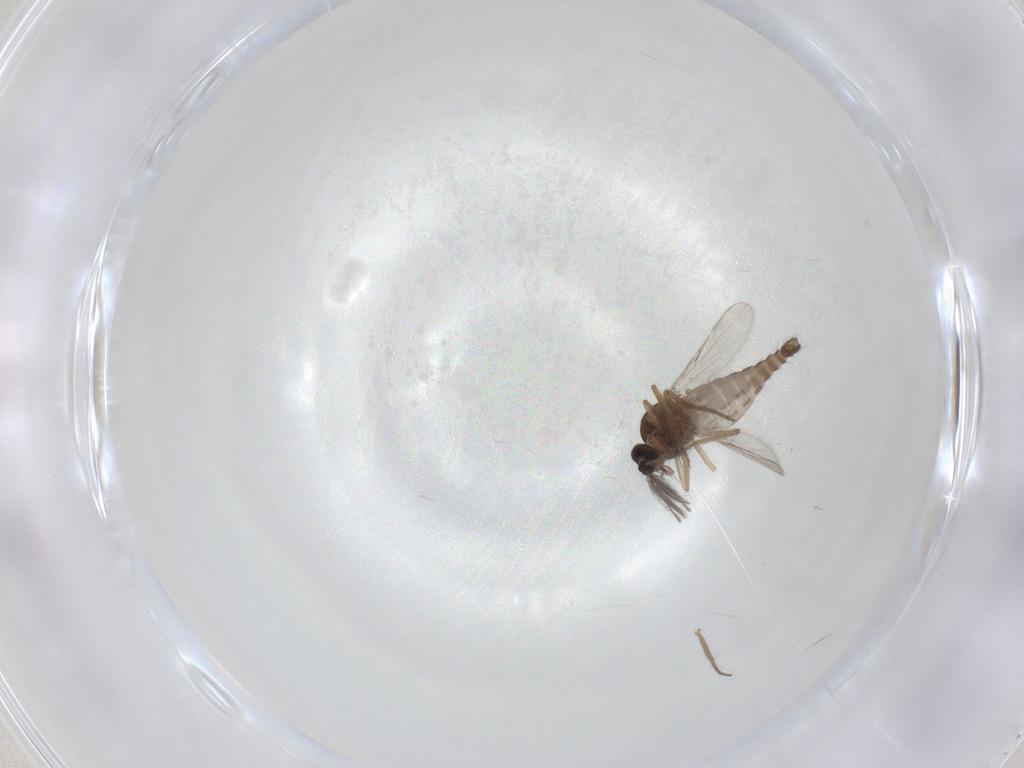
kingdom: Animalia
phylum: Arthropoda
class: Insecta
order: Diptera
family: Ceratopogonidae
